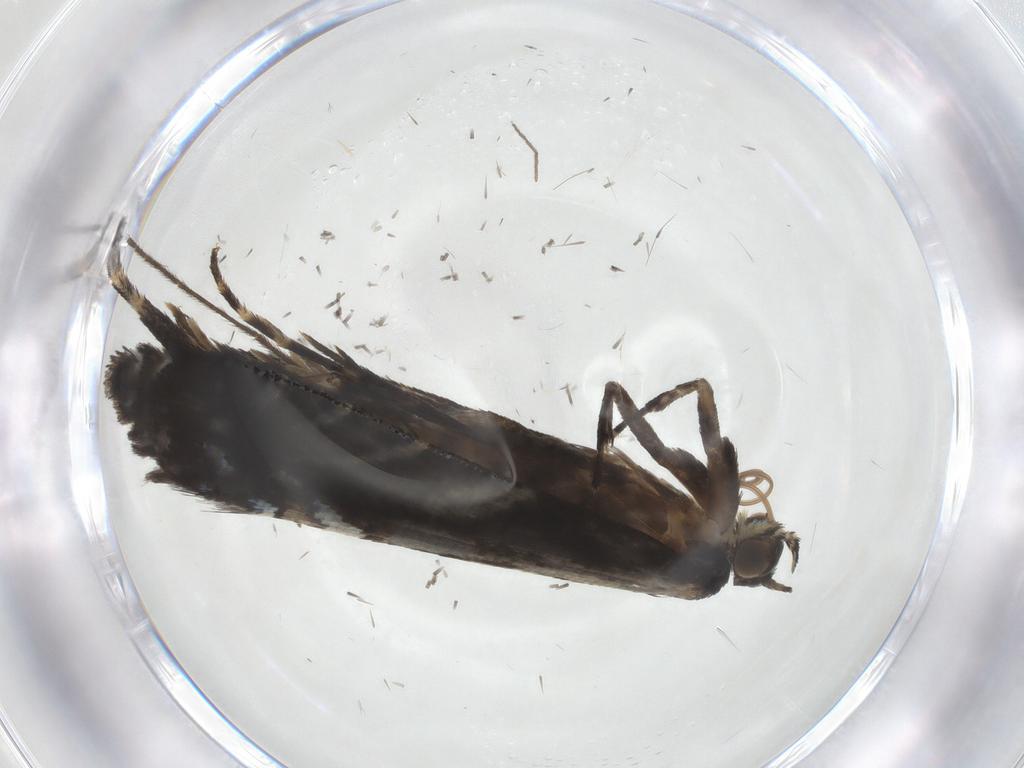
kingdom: Animalia
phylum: Arthropoda
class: Insecta
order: Lepidoptera
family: Glyphipterigidae
